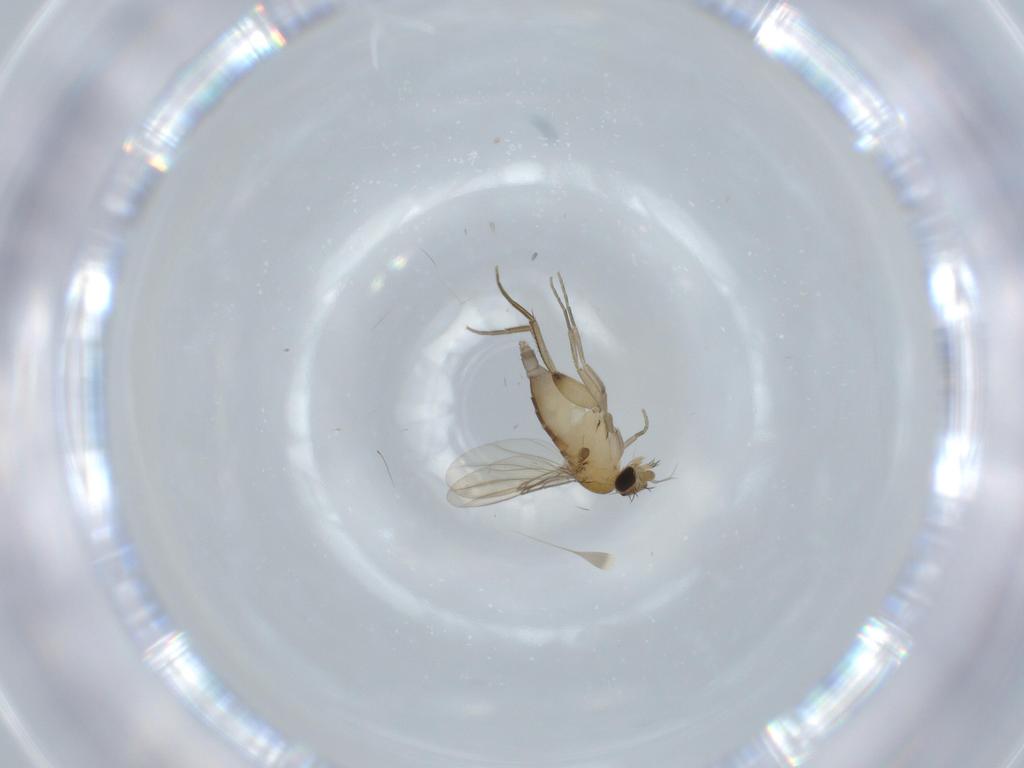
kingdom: Animalia
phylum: Arthropoda
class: Insecta
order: Diptera
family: Phoridae
